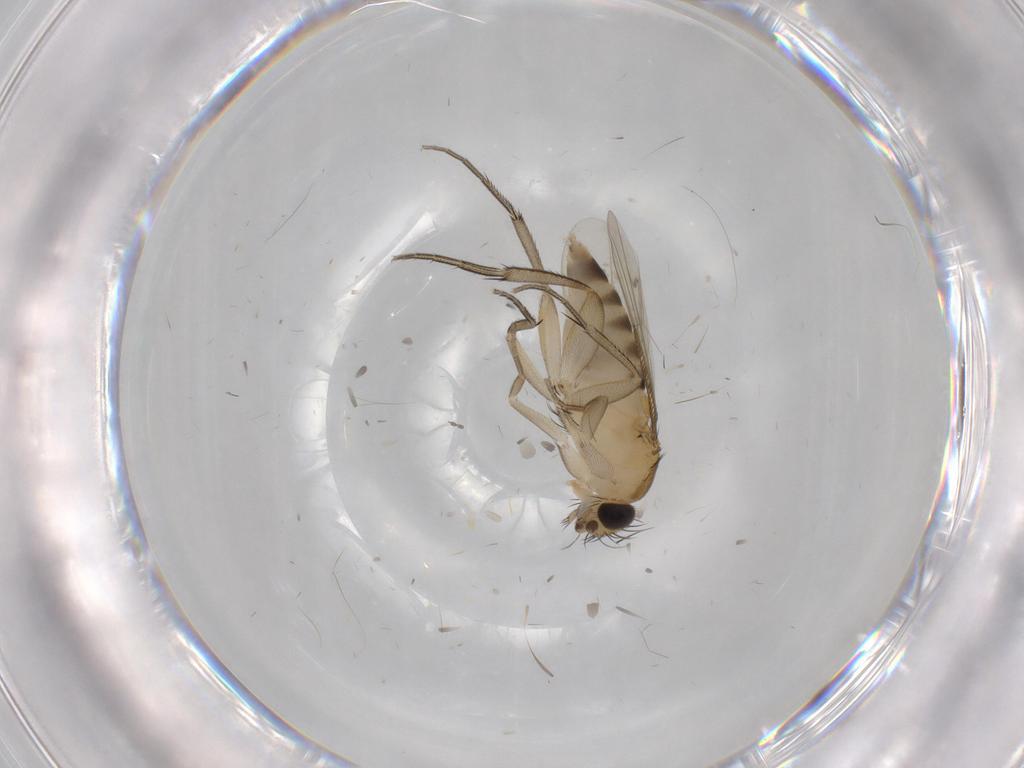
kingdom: Animalia
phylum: Arthropoda
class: Insecta
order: Diptera
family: Phoridae
